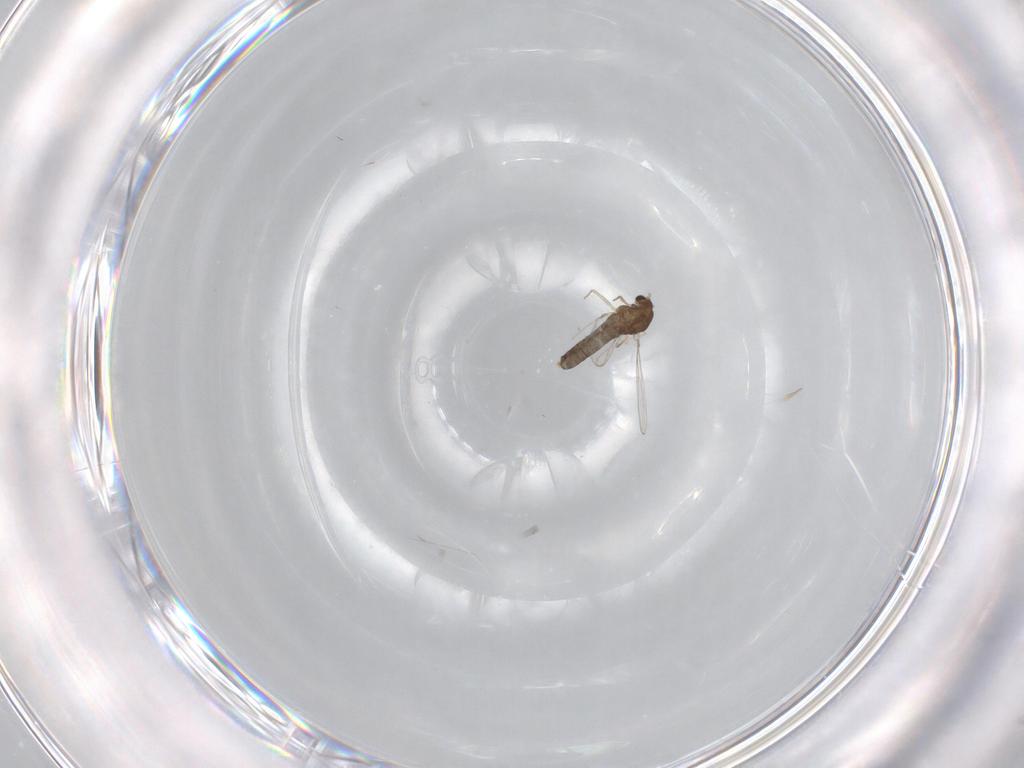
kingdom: Animalia
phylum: Arthropoda
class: Insecta
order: Diptera
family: Chironomidae
